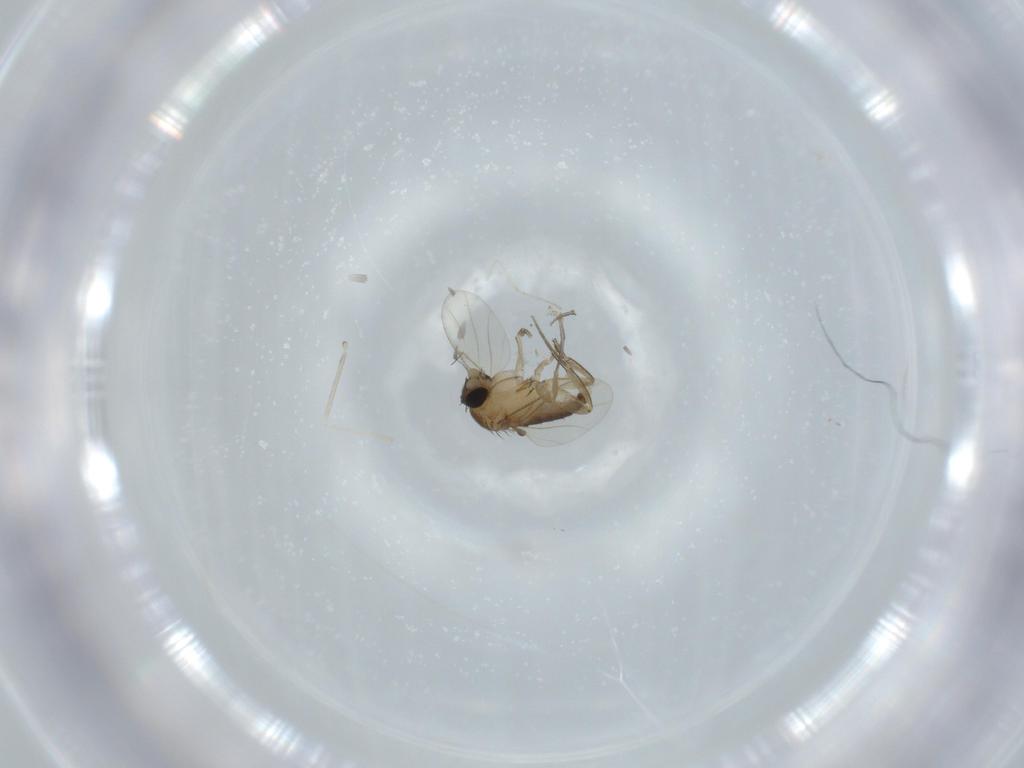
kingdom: Animalia
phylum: Arthropoda
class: Insecta
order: Diptera
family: Cecidomyiidae
